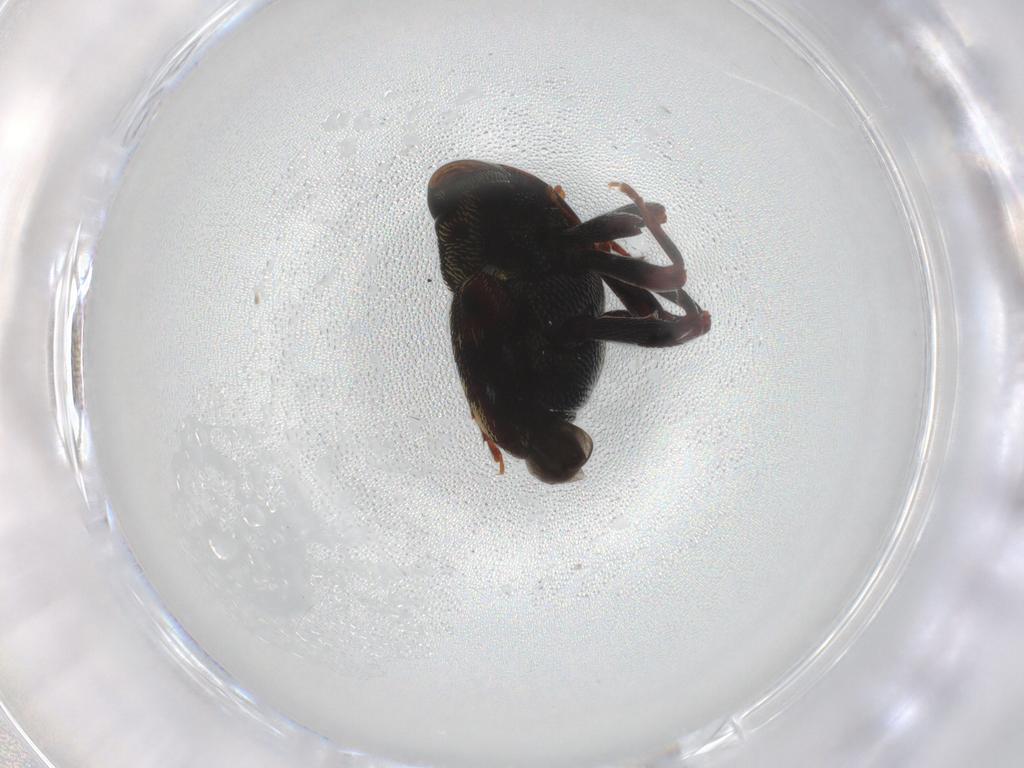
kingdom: Animalia
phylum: Arthropoda
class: Insecta
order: Coleoptera
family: Curculionidae
